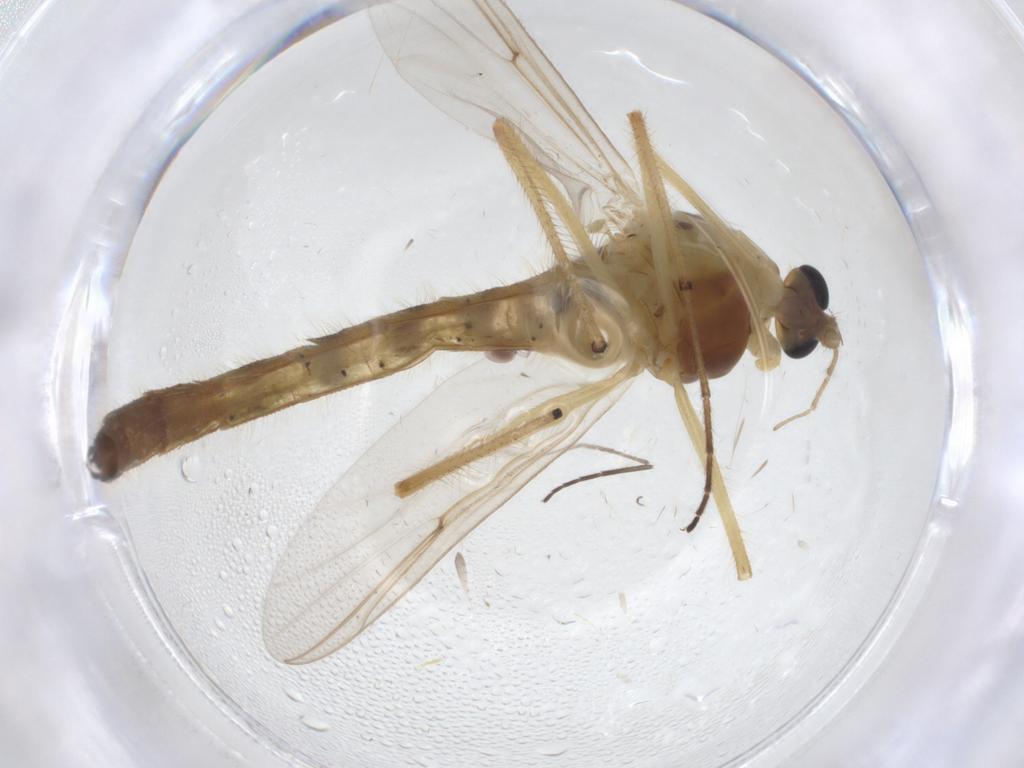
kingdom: Animalia
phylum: Arthropoda
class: Insecta
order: Diptera
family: Chironomidae
